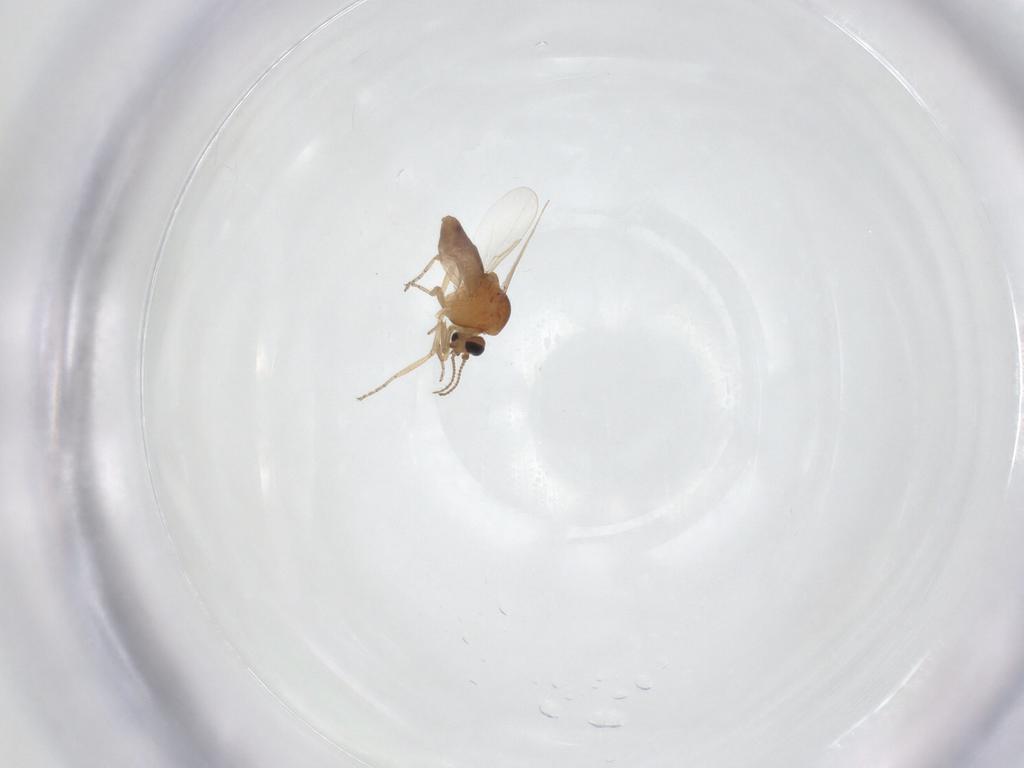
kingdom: Animalia
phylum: Arthropoda
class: Insecta
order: Diptera
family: Ceratopogonidae
